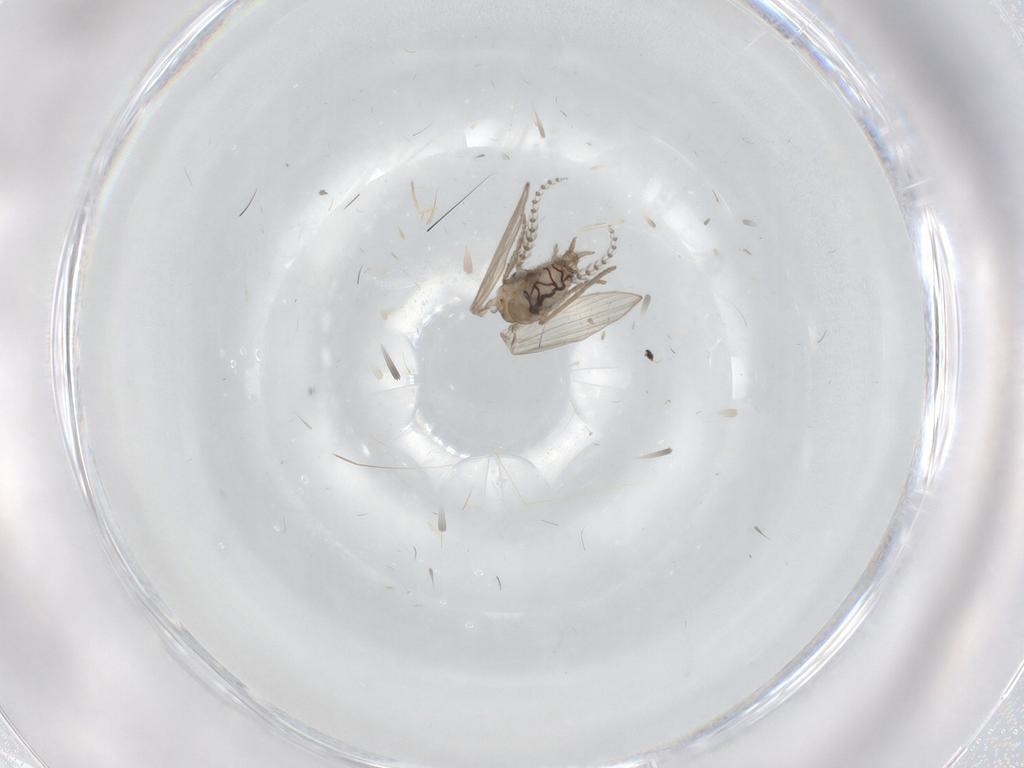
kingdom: Animalia
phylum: Arthropoda
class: Insecta
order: Diptera
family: Psychodidae
